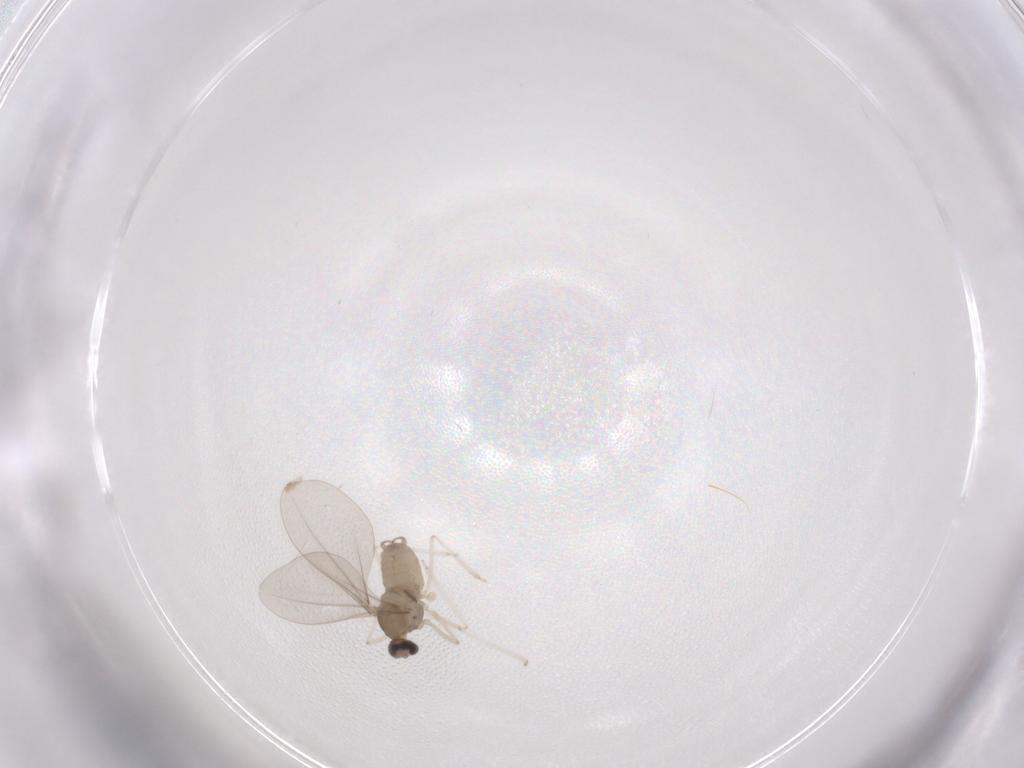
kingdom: Animalia
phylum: Arthropoda
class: Insecta
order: Diptera
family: Cecidomyiidae
